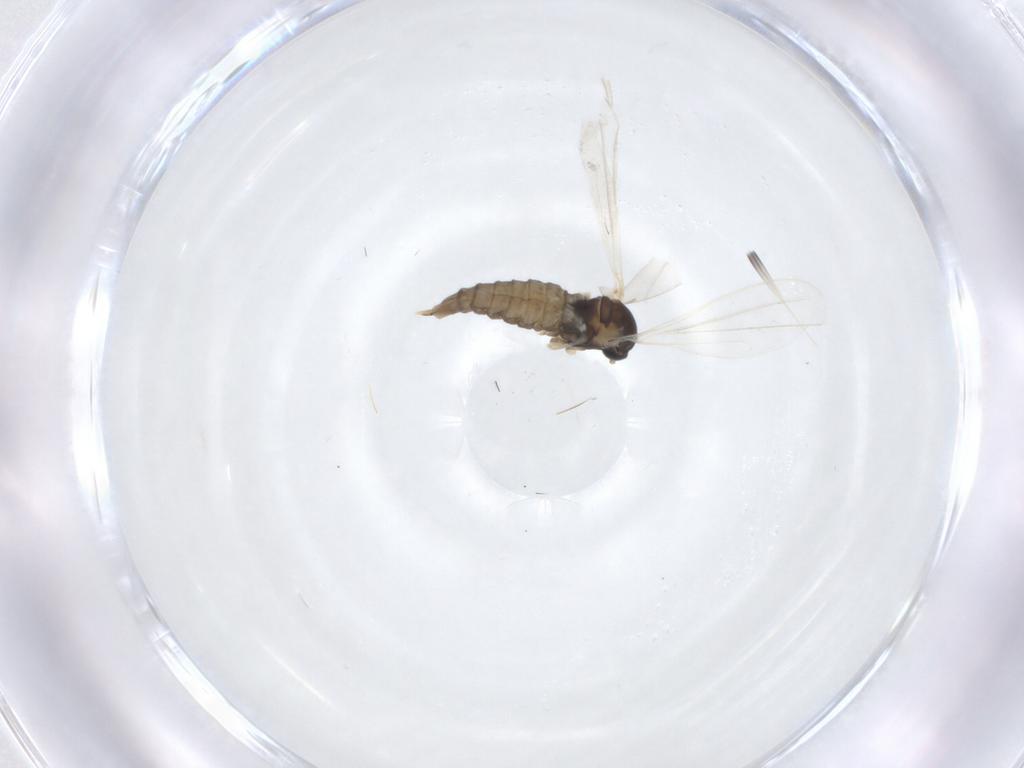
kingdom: Animalia
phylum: Arthropoda
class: Insecta
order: Diptera
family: Cecidomyiidae
